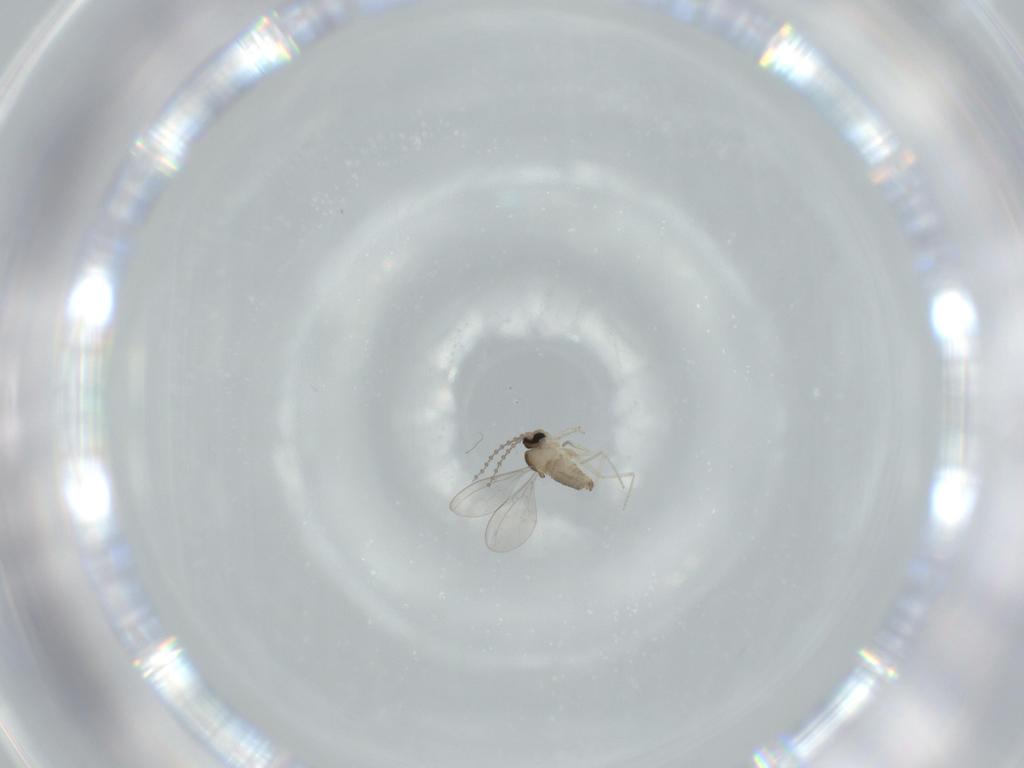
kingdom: Animalia
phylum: Arthropoda
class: Insecta
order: Diptera
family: Cecidomyiidae
